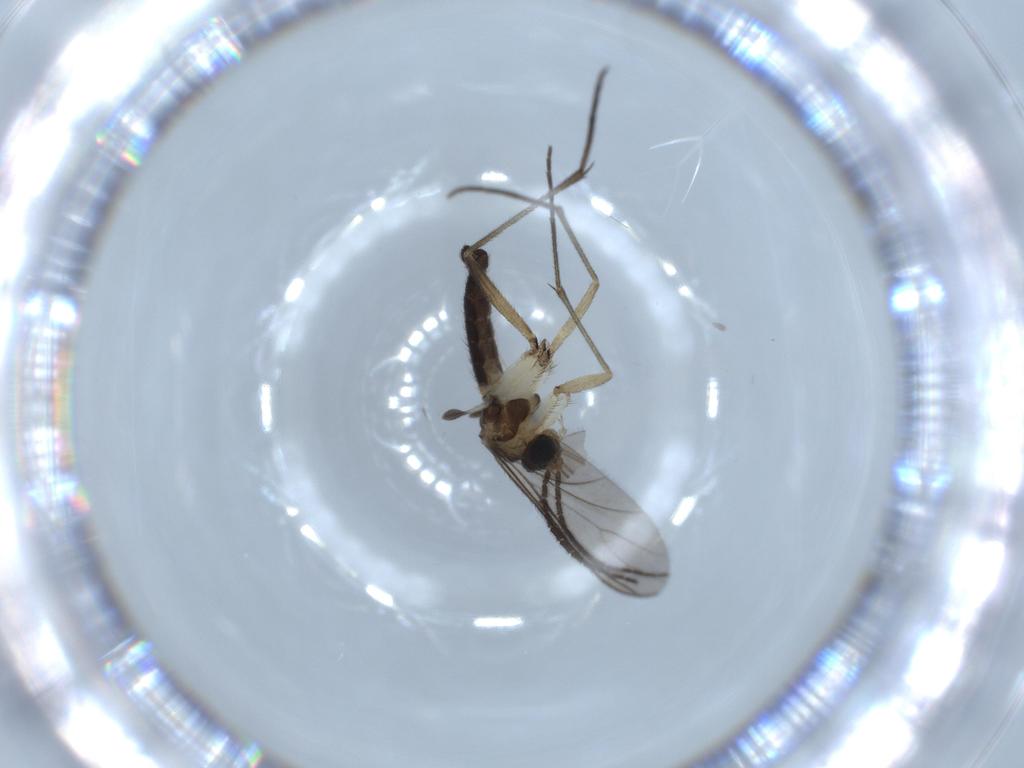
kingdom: Animalia
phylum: Arthropoda
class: Insecta
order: Diptera
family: Sciaridae
